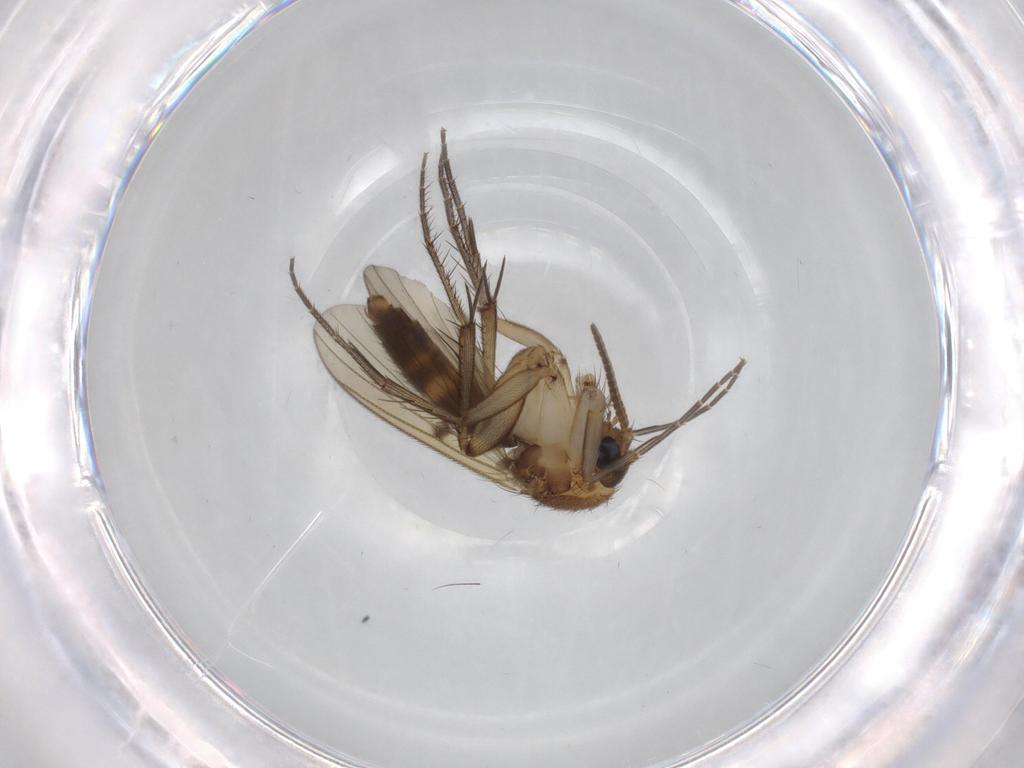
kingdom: Animalia
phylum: Arthropoda
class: Insecta
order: Diptera
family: Mycetophilidae
